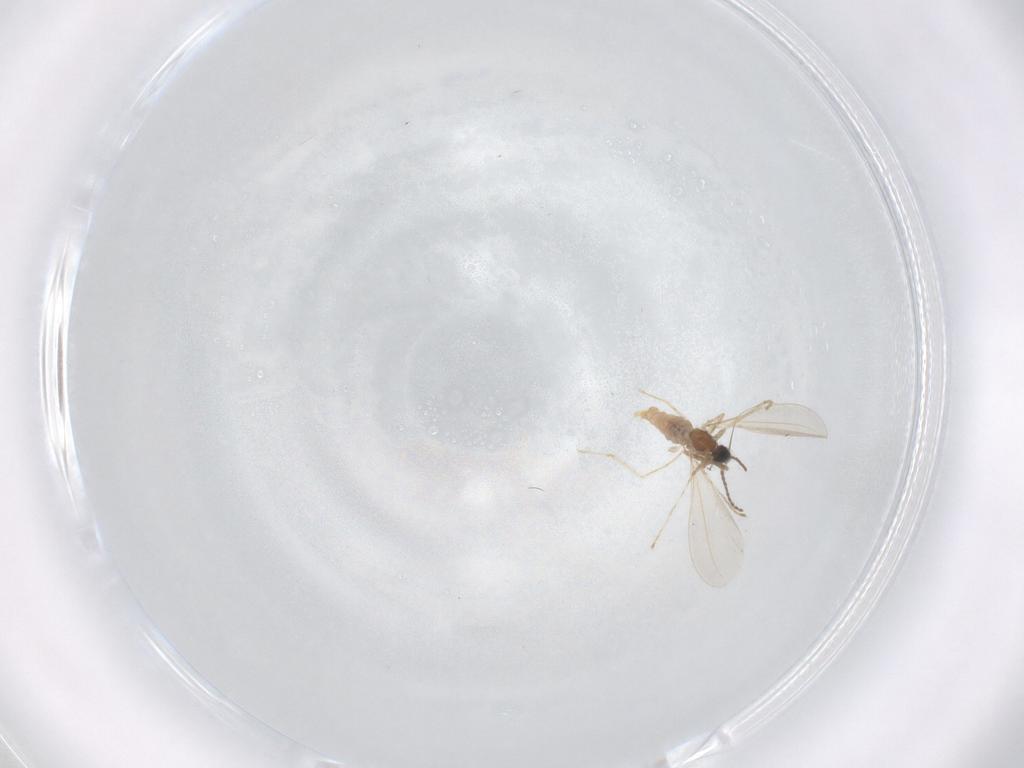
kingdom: Animalia
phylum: Arthropoda
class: Insecta
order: Diptera
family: Cecidomyiidae
